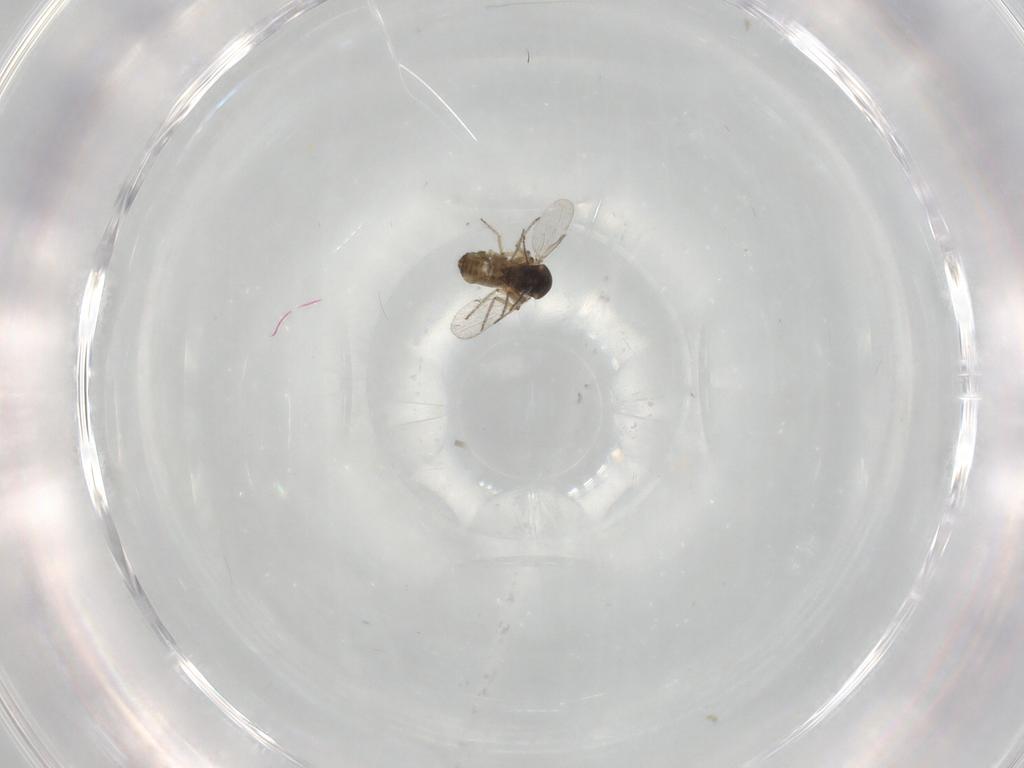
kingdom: Animalia
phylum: Arthropoda
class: Insecta
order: Diptera
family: Ceratopogonidae
